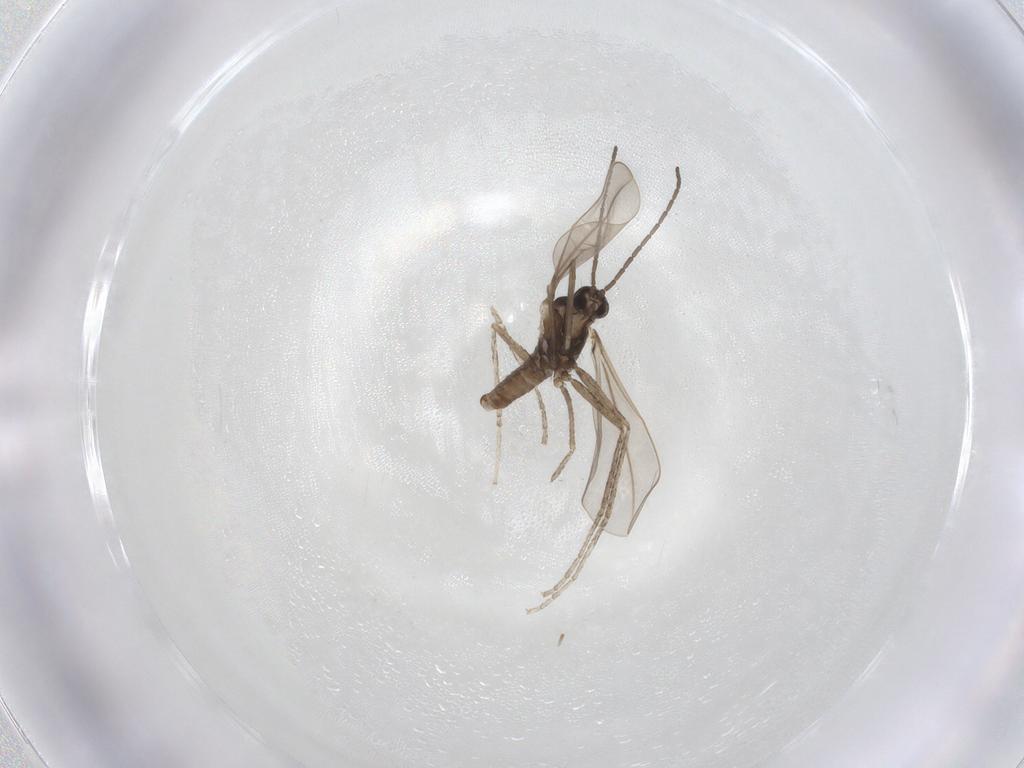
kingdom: Animalia
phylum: Arthropoda
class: Insecta
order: Diptera
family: Cecidomyiidae
